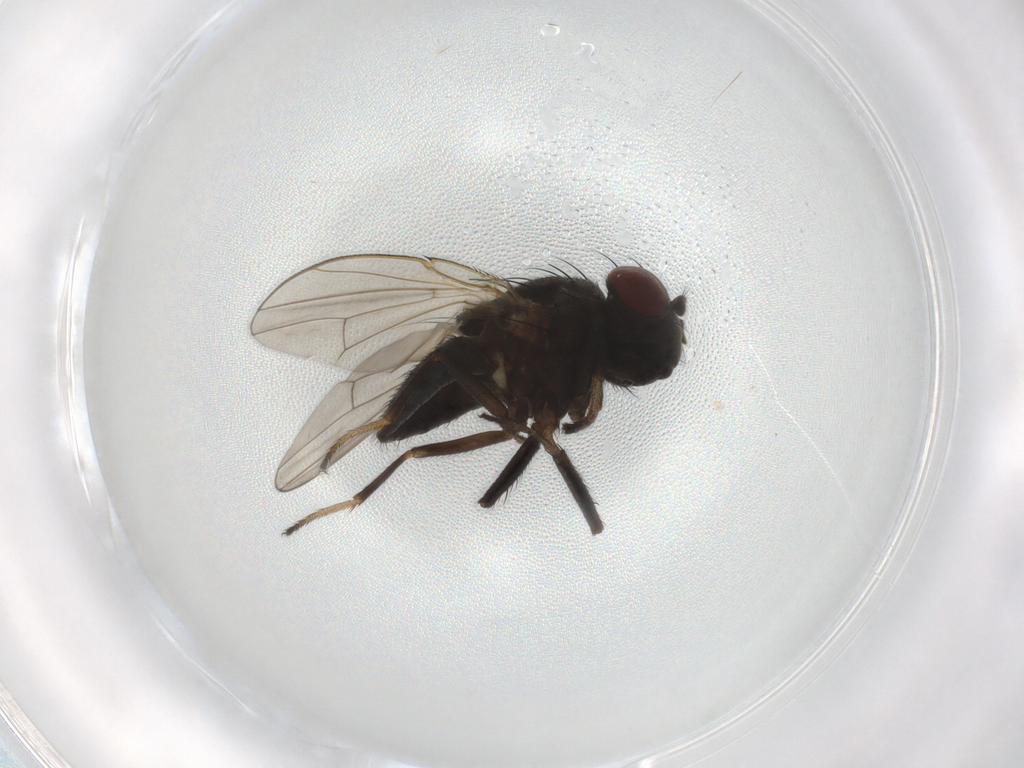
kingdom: Animalia
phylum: Arthropoda
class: Insecta
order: Diptera
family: Ephydridae
